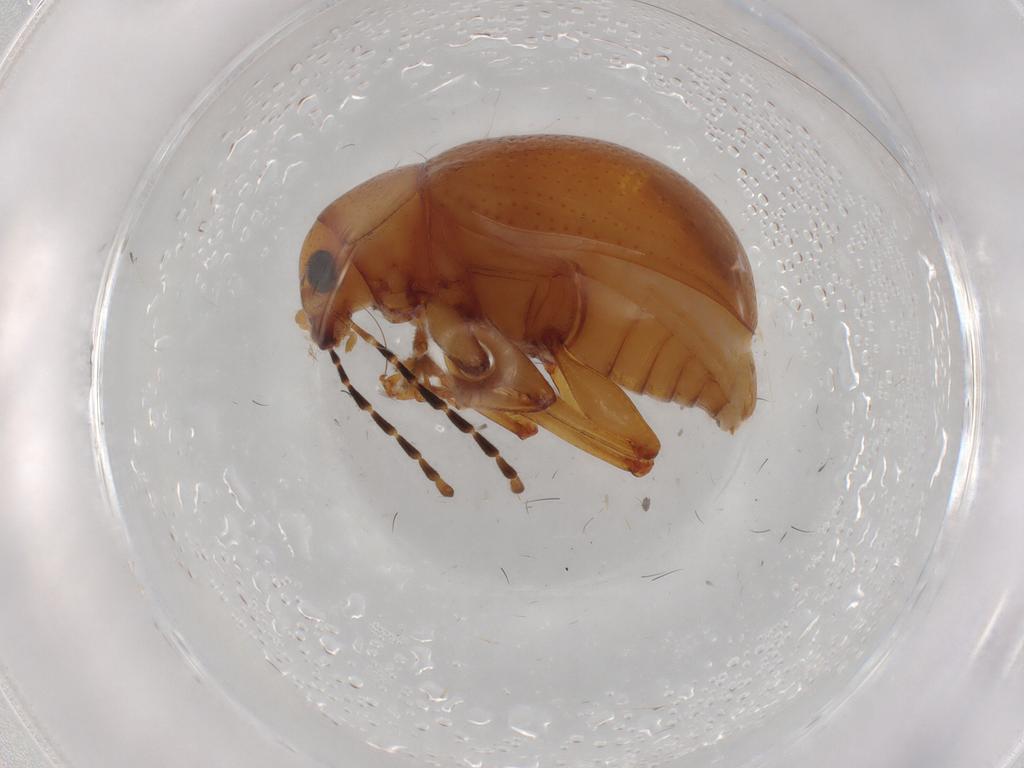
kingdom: Animalia
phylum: Arthropoda
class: Insecta
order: Coleoptera
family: Chrysomelidae
